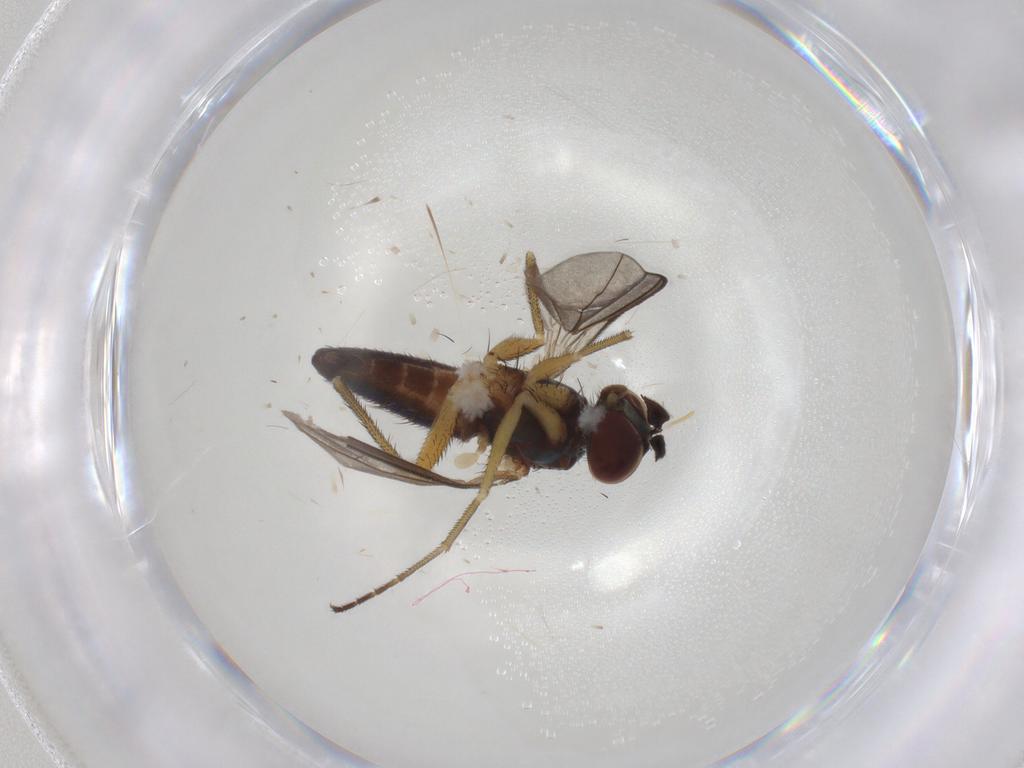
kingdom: Animalia
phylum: Arthropoda
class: Insecta
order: Diptera
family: Dolichopodidae
